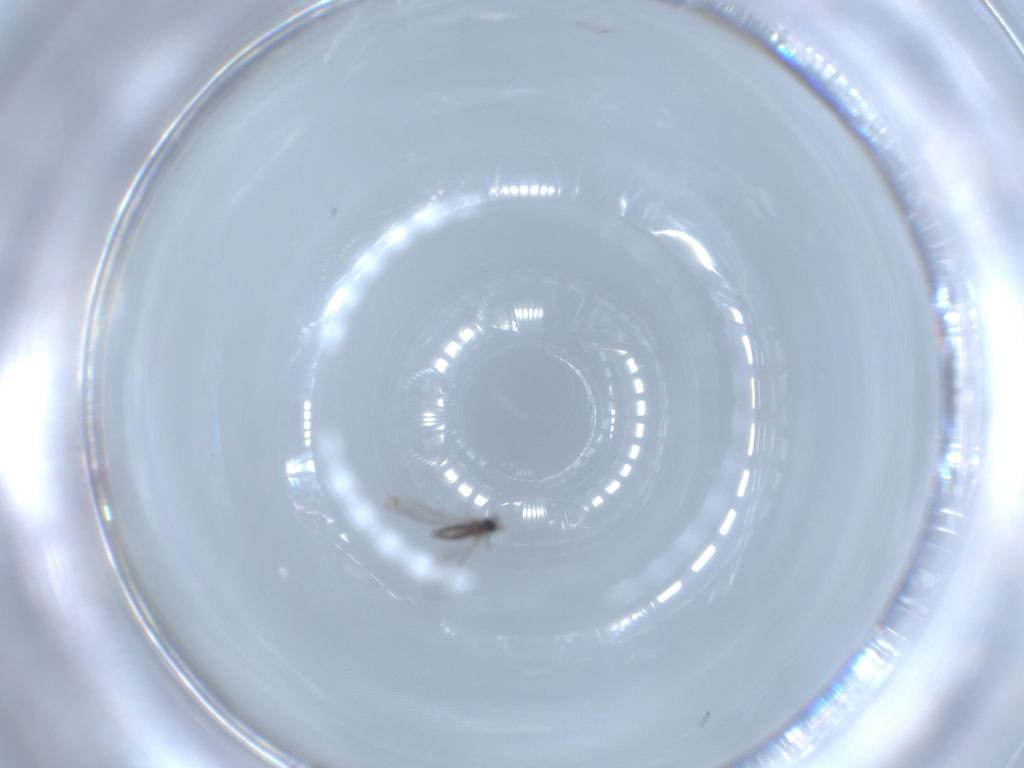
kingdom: Animalia
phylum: Arthropoda
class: Insecta
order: Diptera
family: Cecidomyiidae
